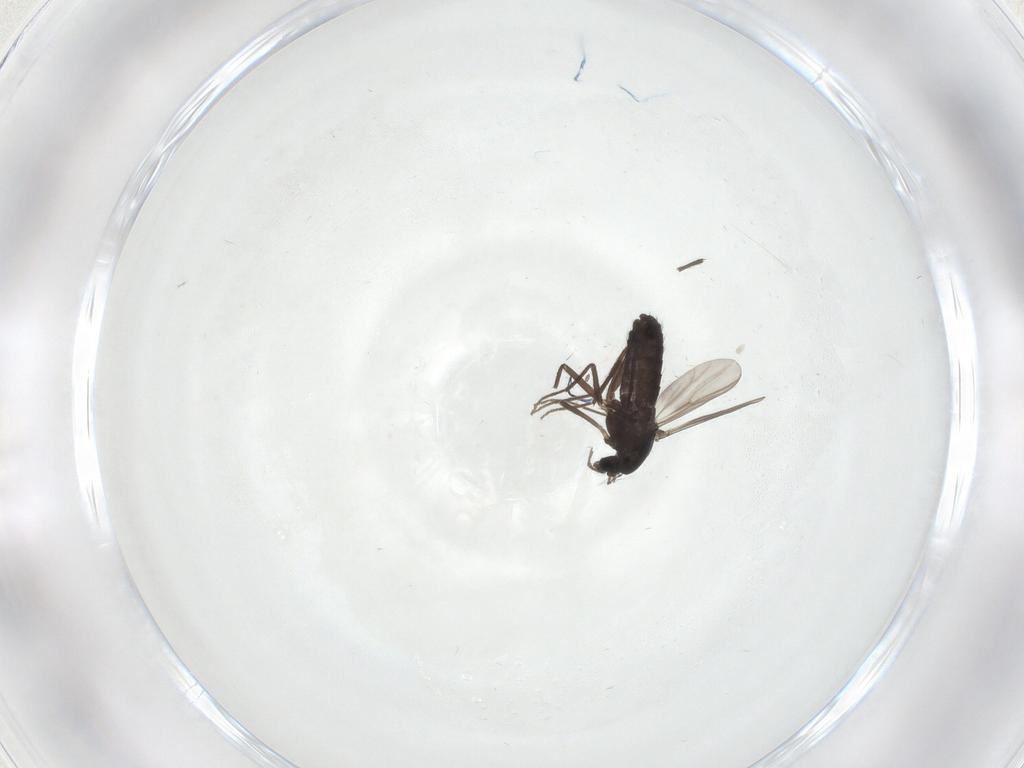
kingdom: Animalia
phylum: Arthropoda
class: Insecta
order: Diptera
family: Chironomidae
